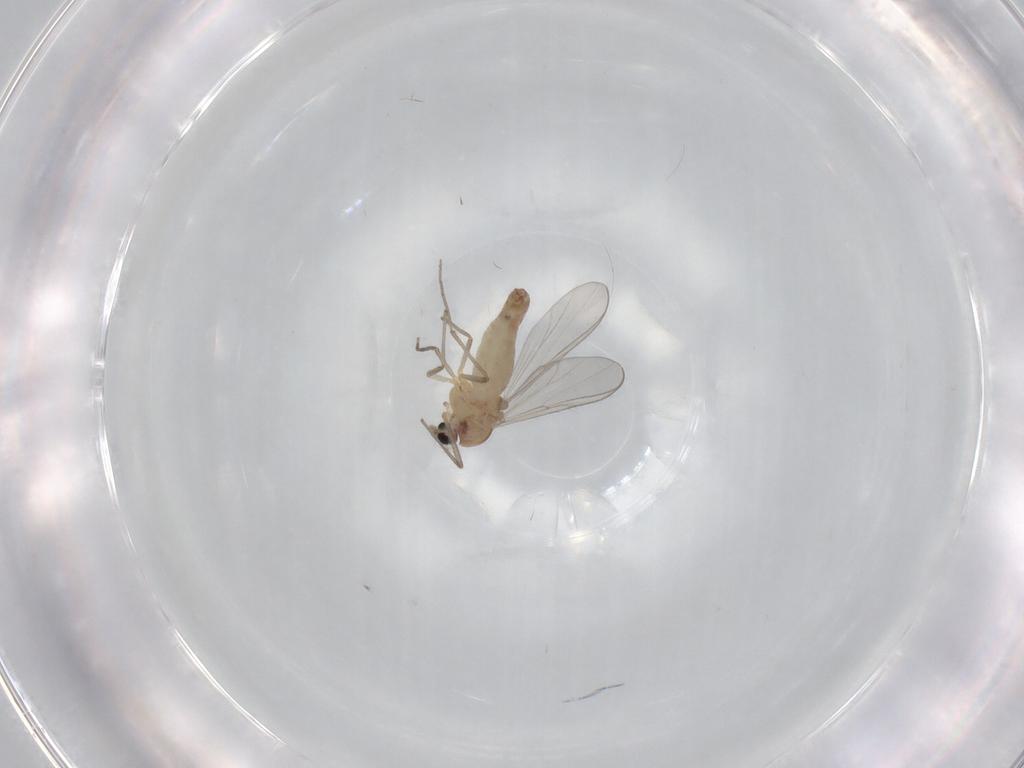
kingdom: Animalia
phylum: Arthropoda
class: Insecta
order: Diptera
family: Chironomidae
